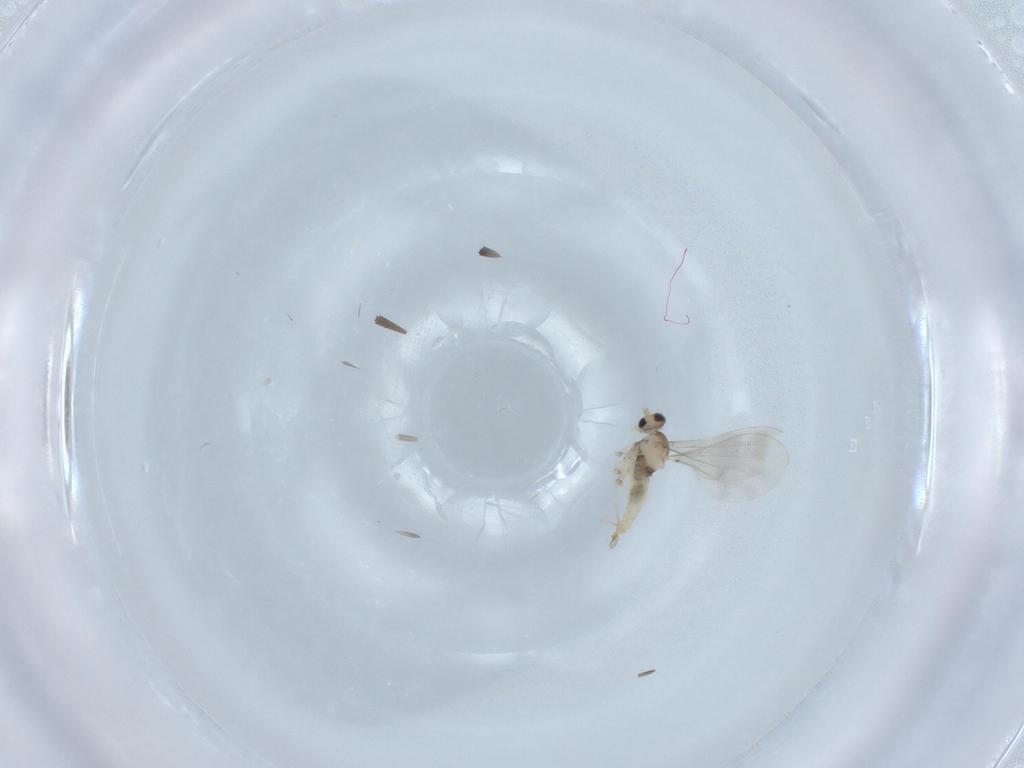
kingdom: Animalia
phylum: Arthropoda
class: Insecta
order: Diptera
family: Cecidomyiidae
